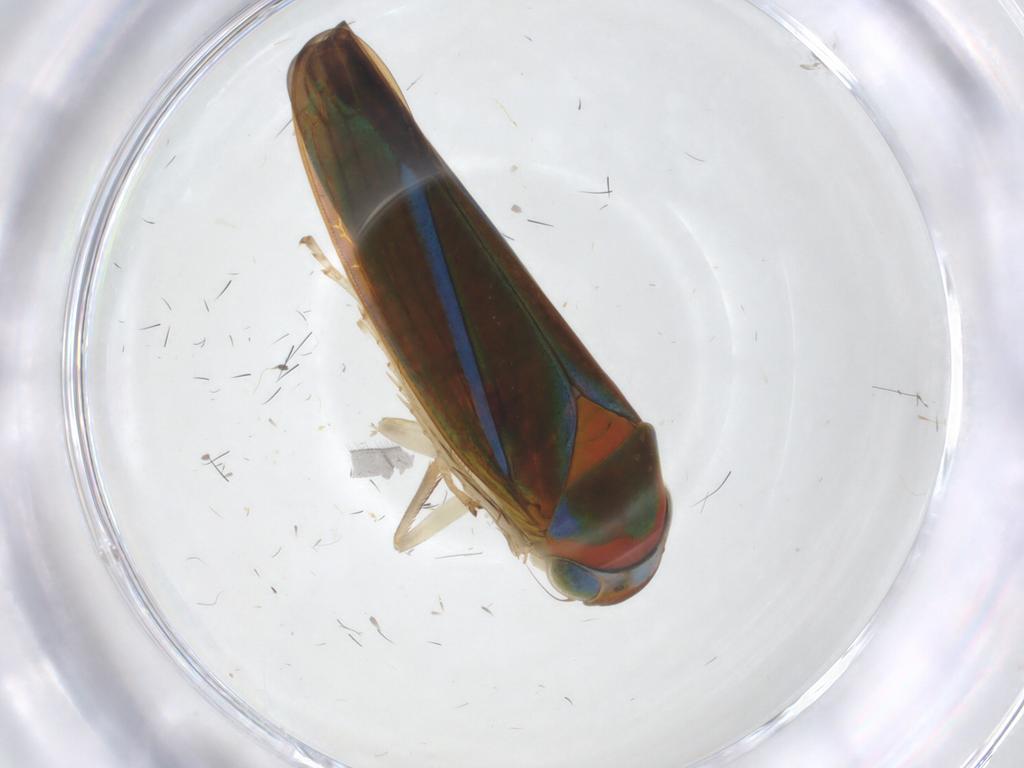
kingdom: Animalia
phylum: Arthropoda
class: Insecta
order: Hemiptera
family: Cicadellidae
